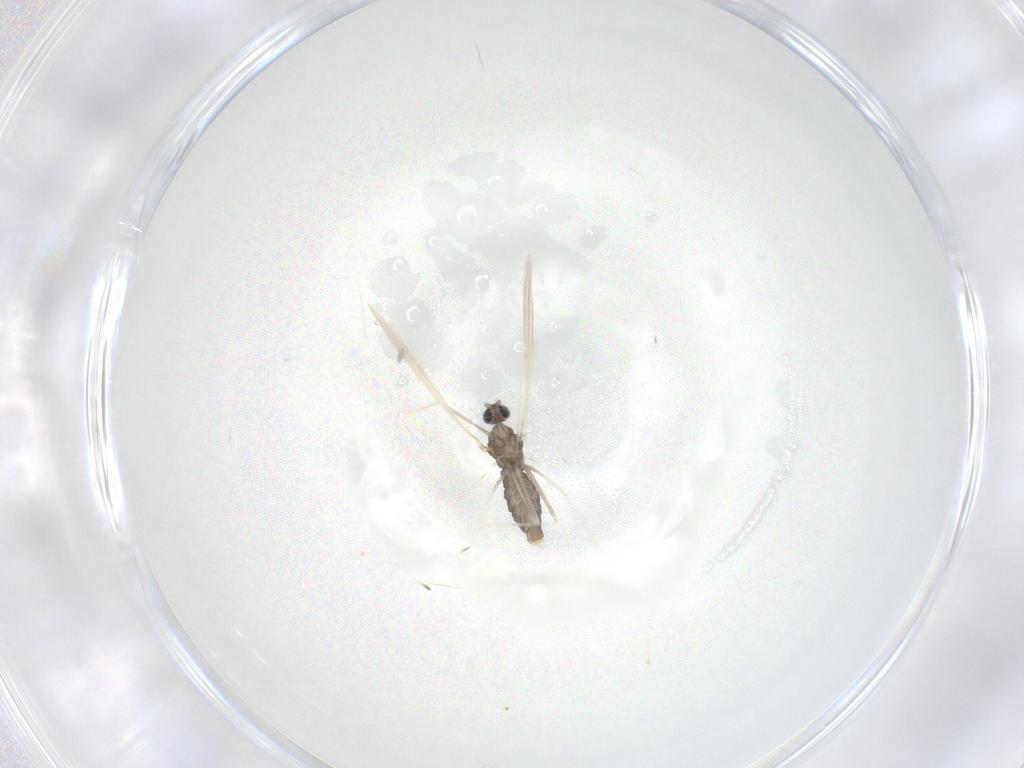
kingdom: Animalia
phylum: Arthropoda
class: Insecta
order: Diptera
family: Cecidomyiidae
